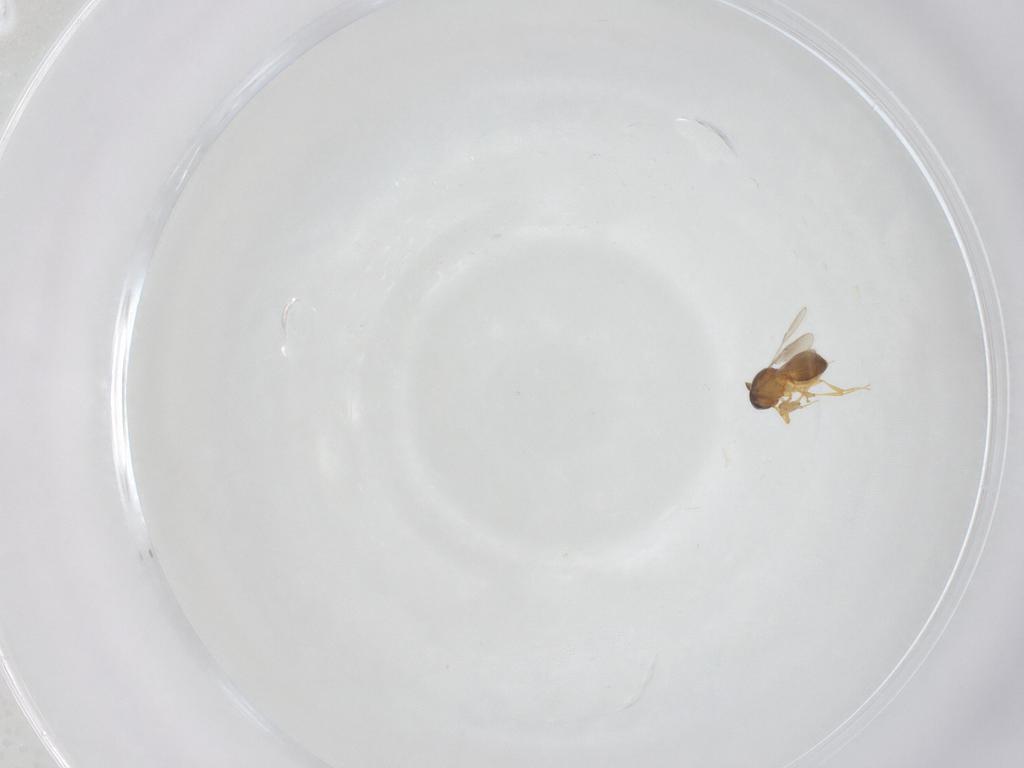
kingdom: Animalia
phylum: Arthropoda
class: Insecta
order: Hymenoptera
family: Scelionidae
